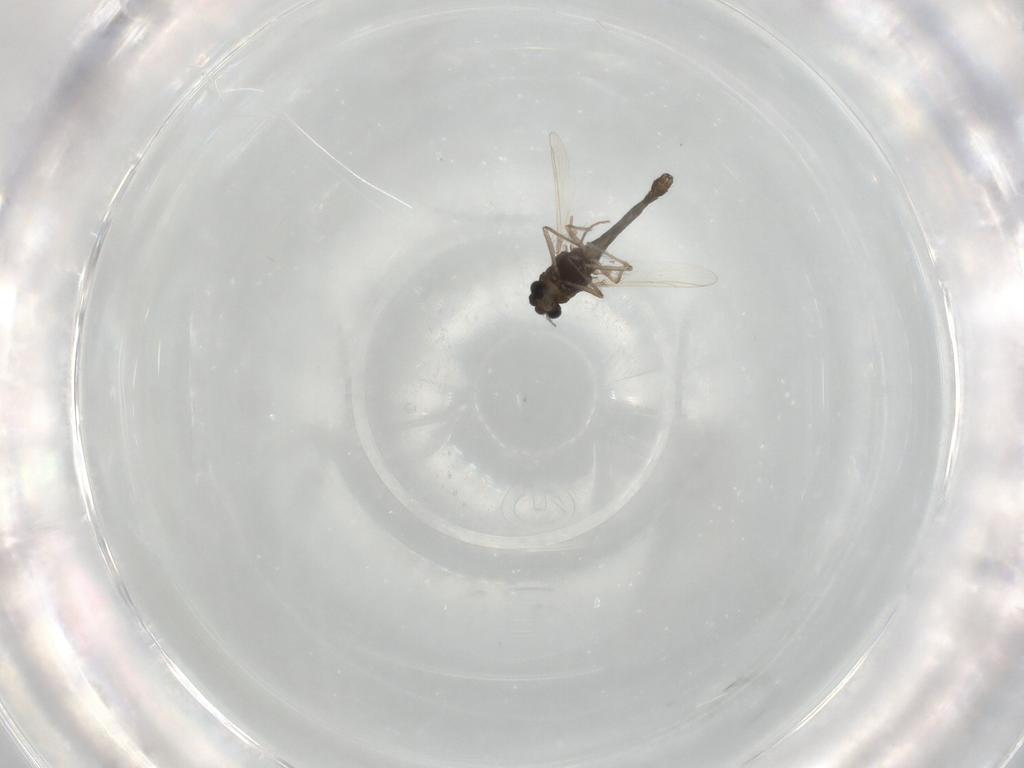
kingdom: Animalia
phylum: Arthropoda
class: Insecta
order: Diptera
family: Chironomidae
